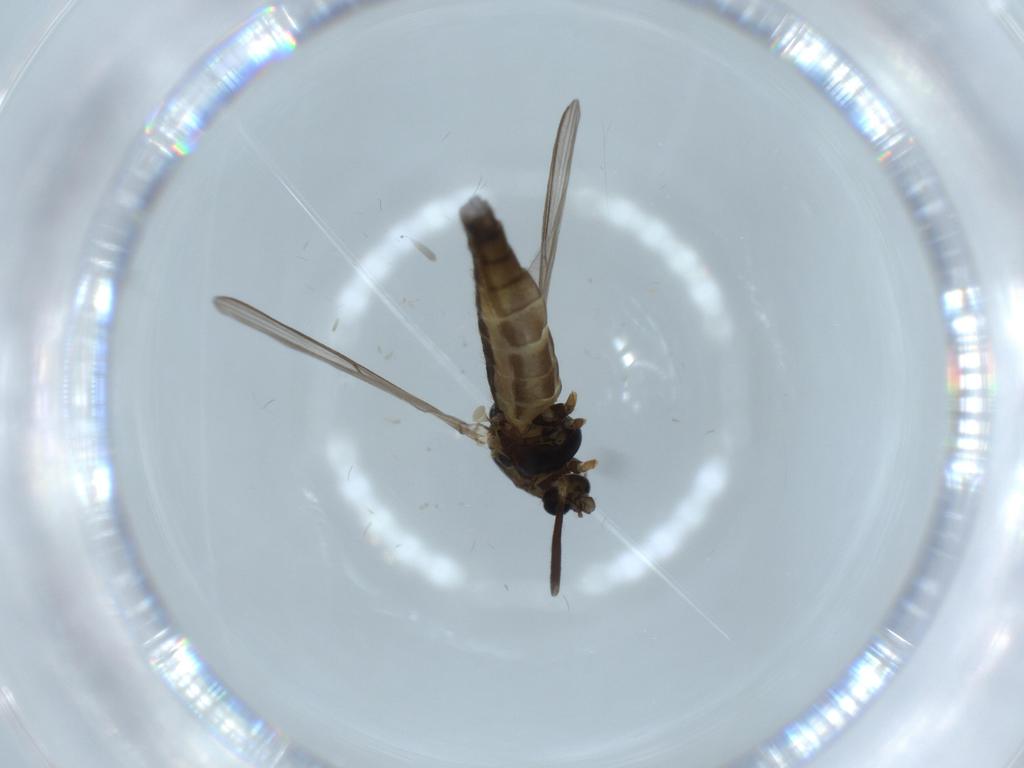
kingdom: Animalia
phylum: Arthropoda
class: Insecta
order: Diptera
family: Chironomidae
